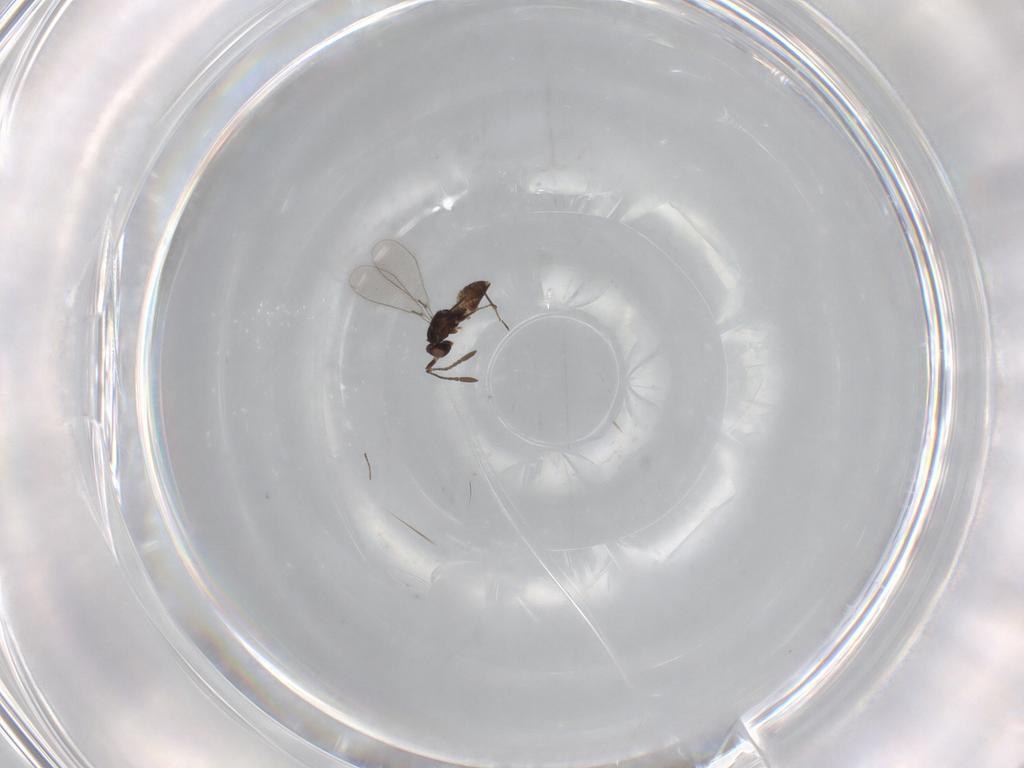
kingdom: Animalia
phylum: Arthropoda
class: Insecta
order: Hymenoptera
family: Mymaridae
